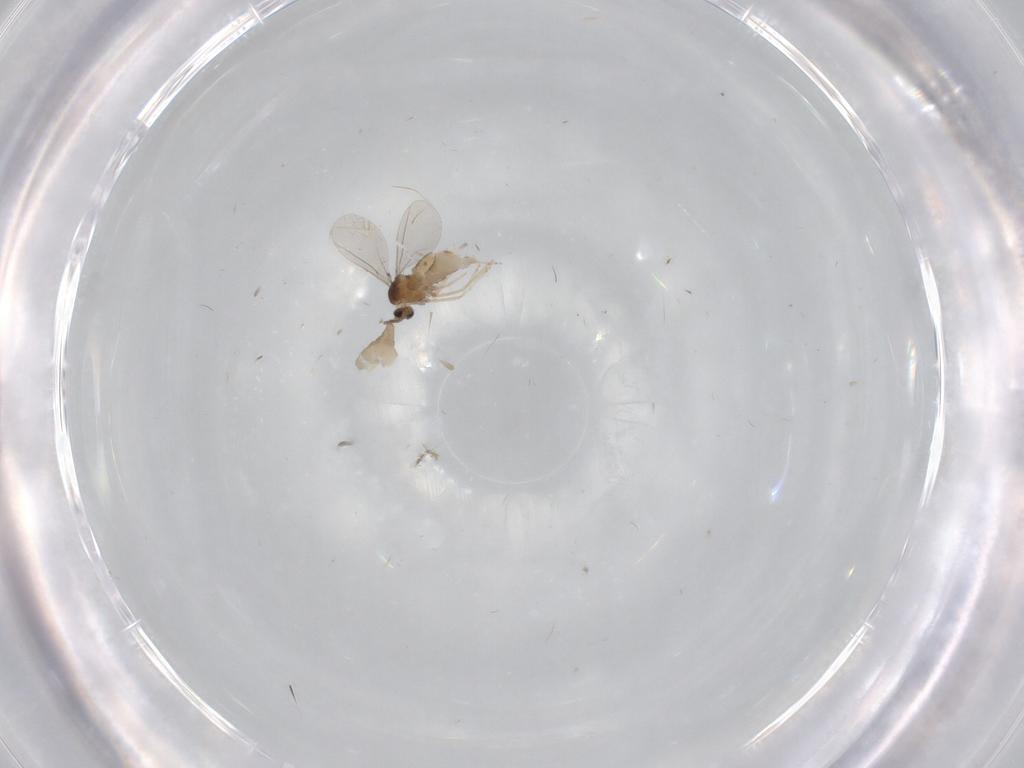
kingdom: Animalia
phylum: Arthropoda
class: Insecta
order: Diptera
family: Cecidomyiidae
